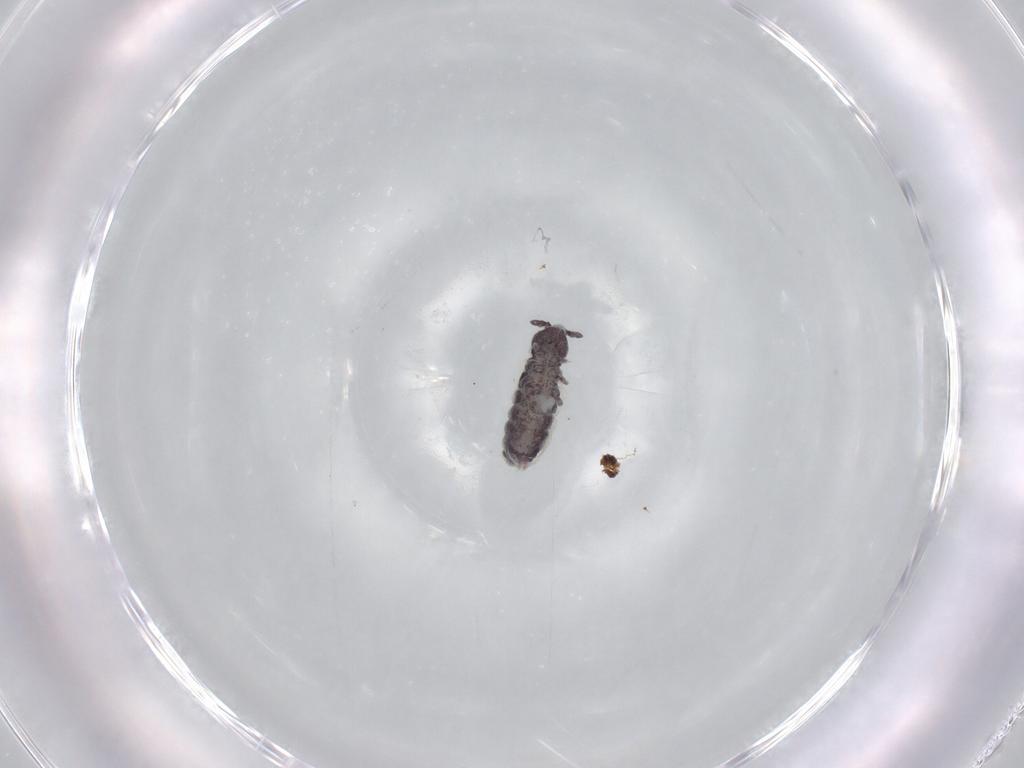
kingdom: Animalia
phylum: Arthropoda
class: Collembola
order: Poduromorpha
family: Hypogastruridae
